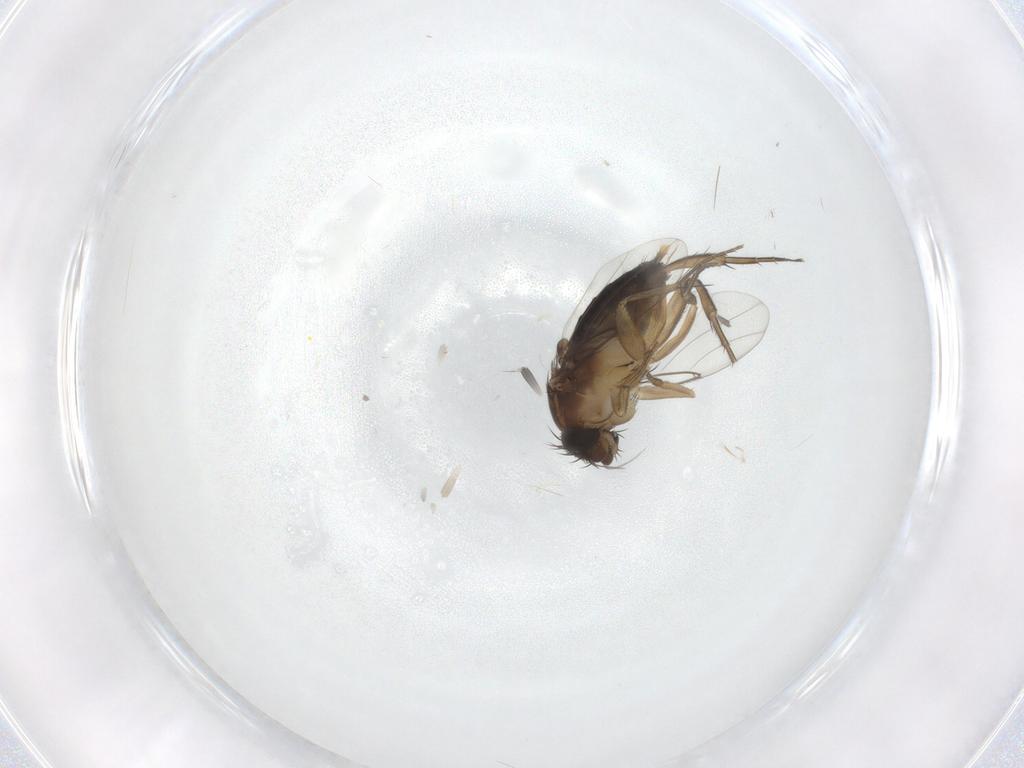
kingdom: Animalia
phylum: Arthropoda
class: Insecta
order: Diptera
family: Phoridae
